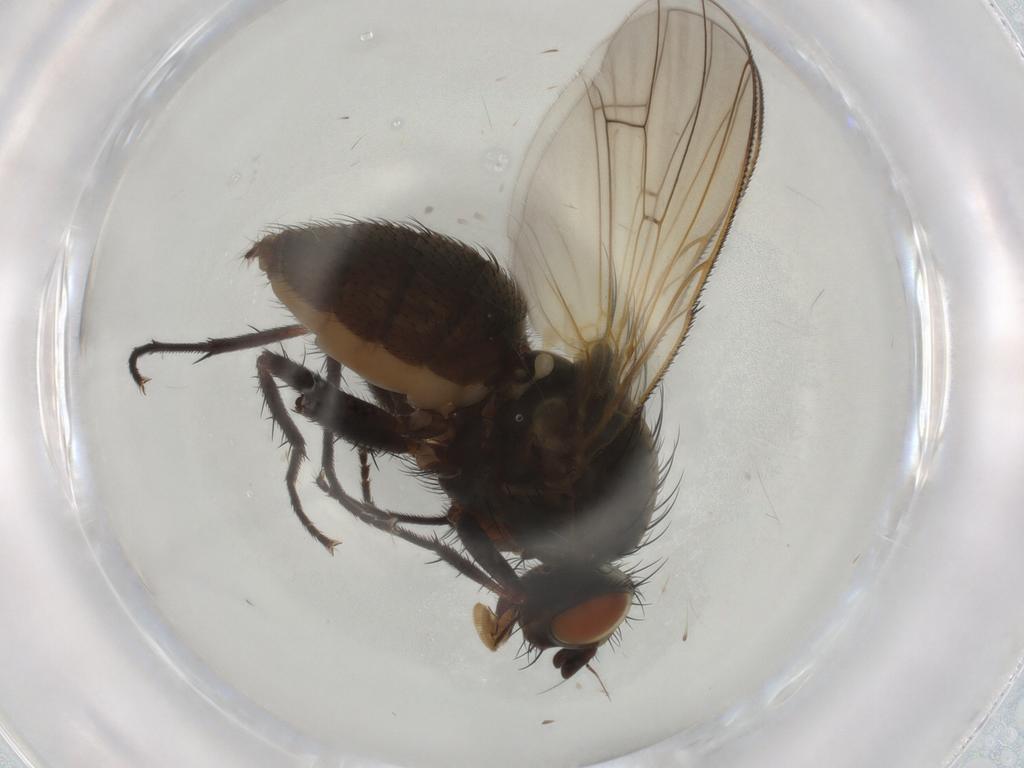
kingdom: Animalia
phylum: Arthropoda
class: Insecta
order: Diptera
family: Anthomyiidae
